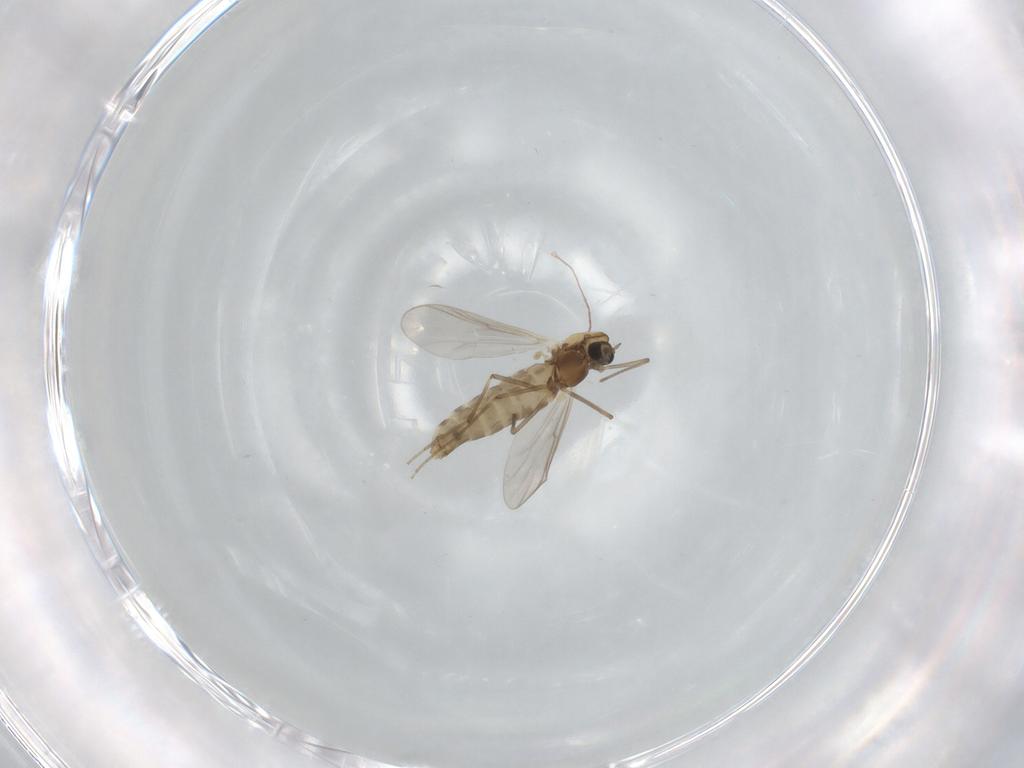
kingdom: Animalia
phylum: Arthropoda
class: Insecta
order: Diptera
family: Chironomidae
